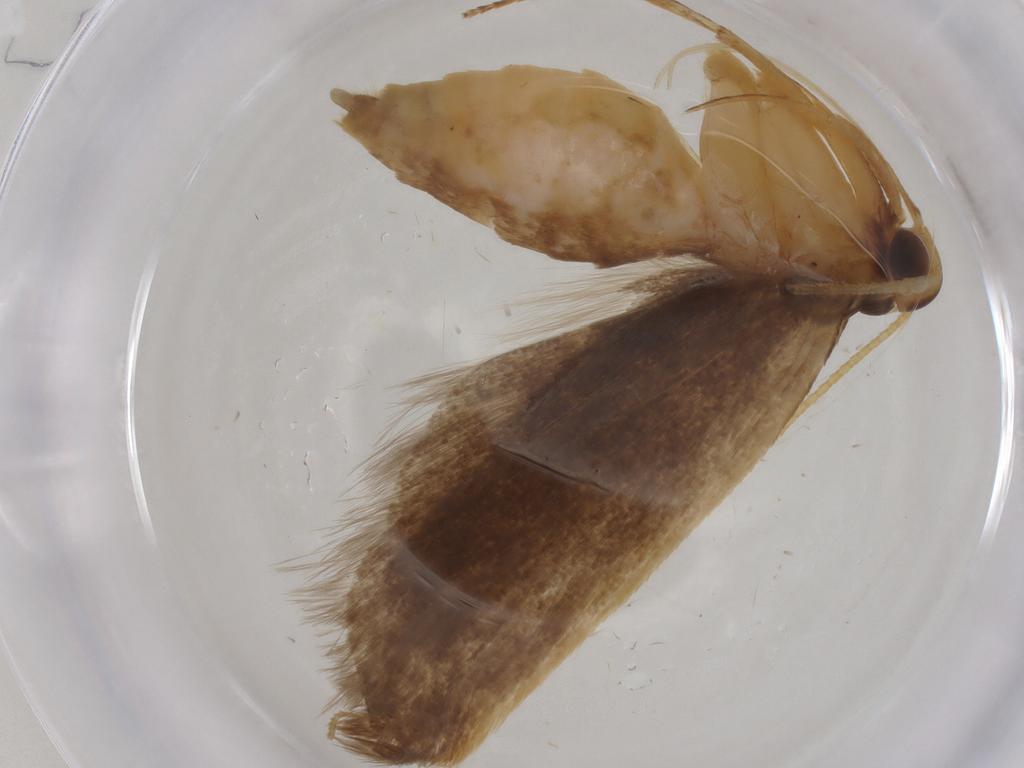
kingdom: Animalia
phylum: Arthropoda
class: Insecta
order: Lepidoptera
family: Lecithoceridae
